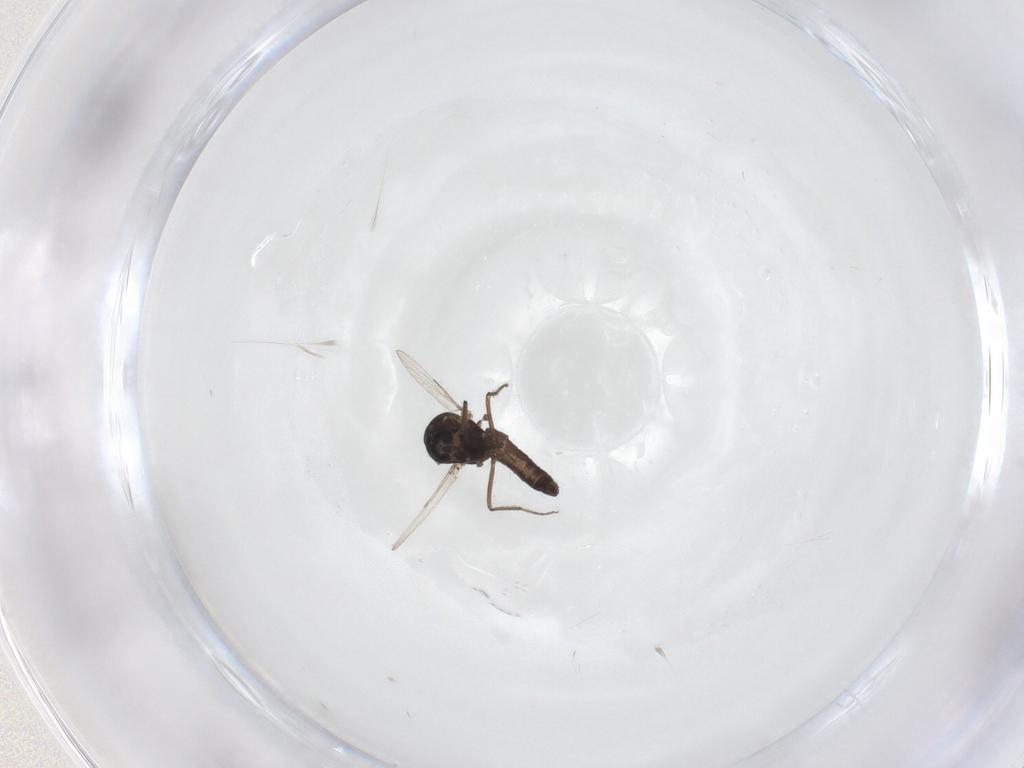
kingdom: Animalia
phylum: Arthropoda
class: Insecta
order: Diptera
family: Ceratopogonidae
